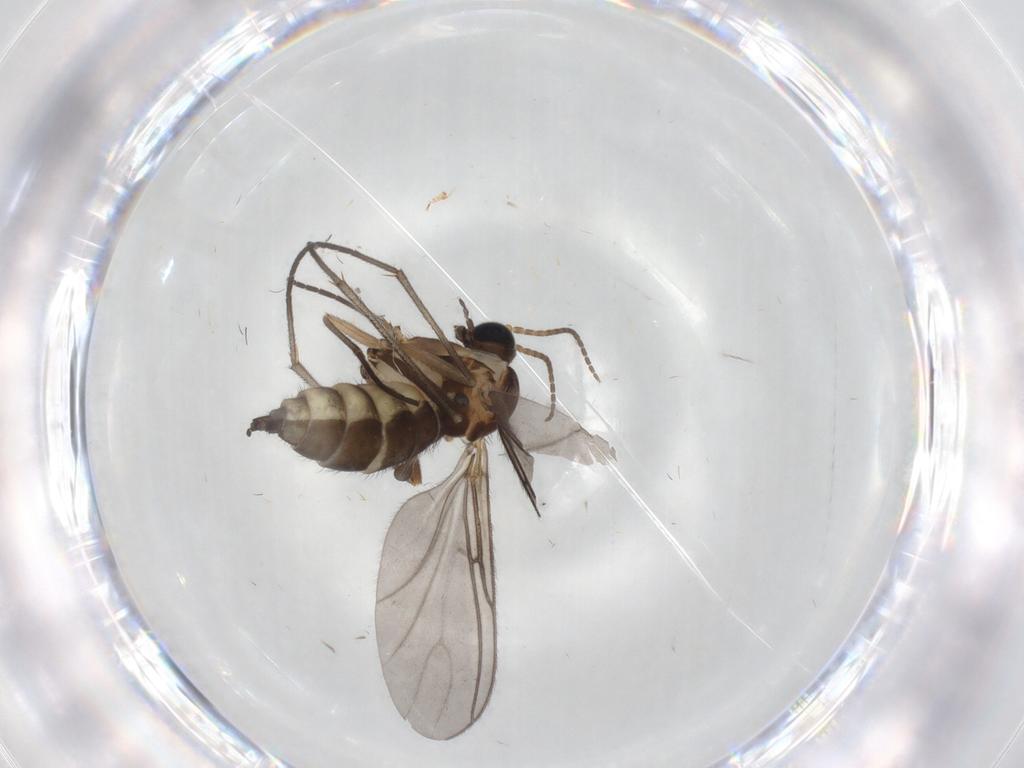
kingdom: Animalia
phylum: Arthropoda
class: Insecta
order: Diptera
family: Sciaridae
